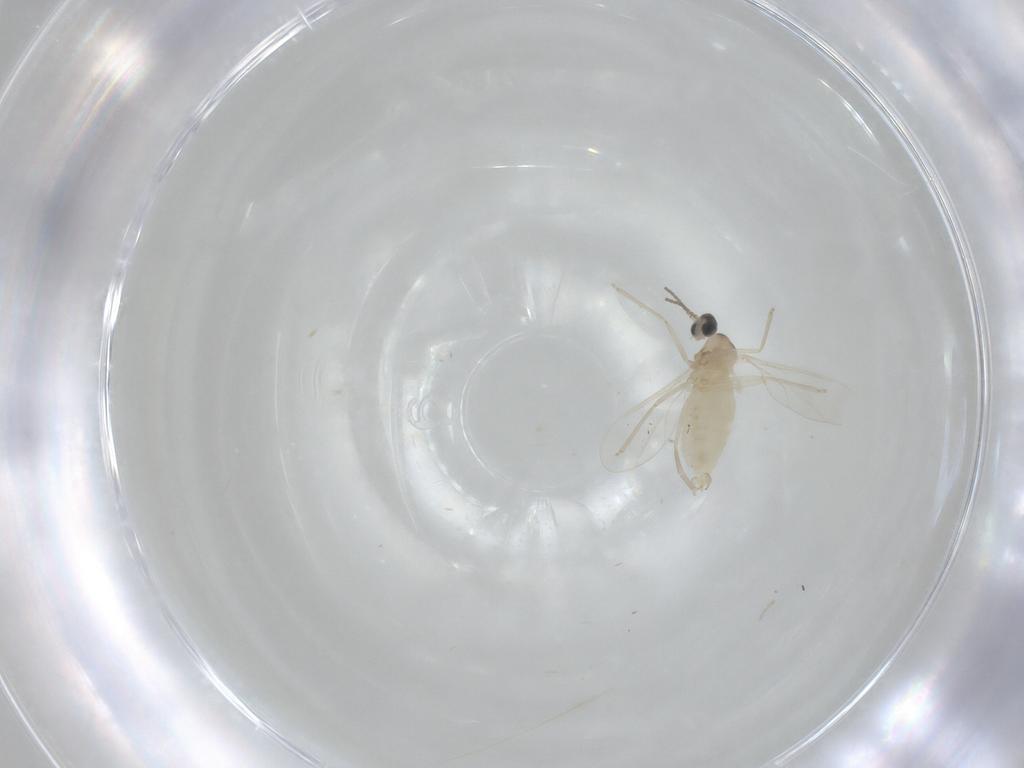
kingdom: Animalia
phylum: Arthropoda
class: Insecta
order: Diptera
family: Cecidomyiidae
